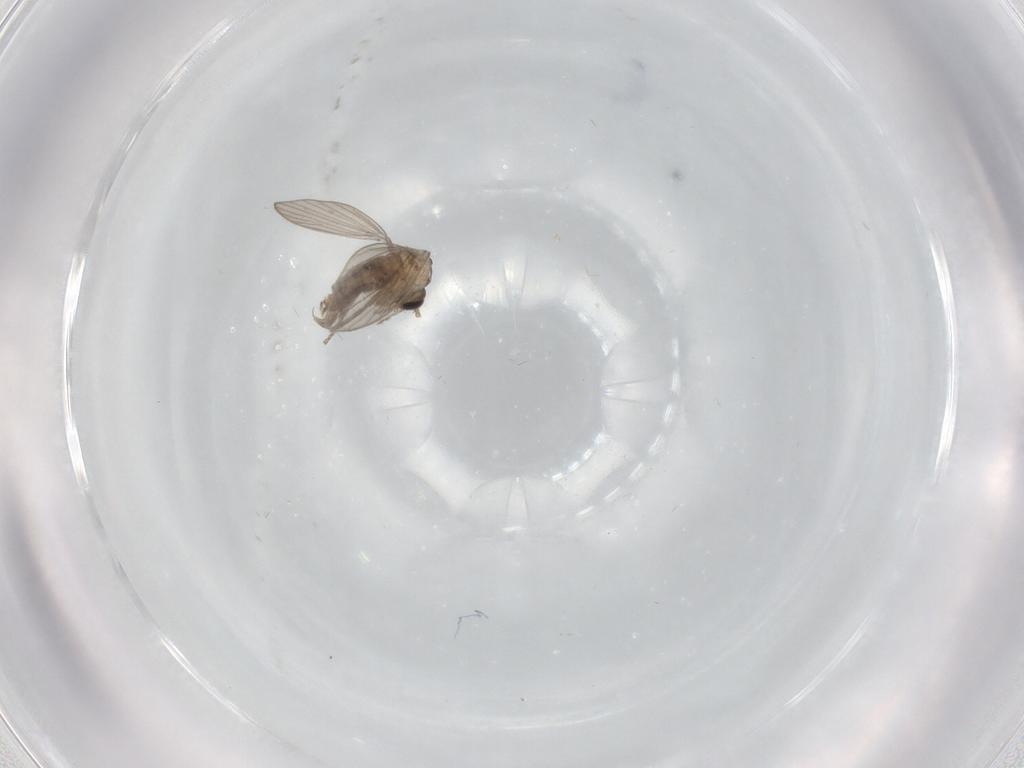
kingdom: Animalia
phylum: Arthropoda
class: Insecta
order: Diptera
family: Psychodidae
